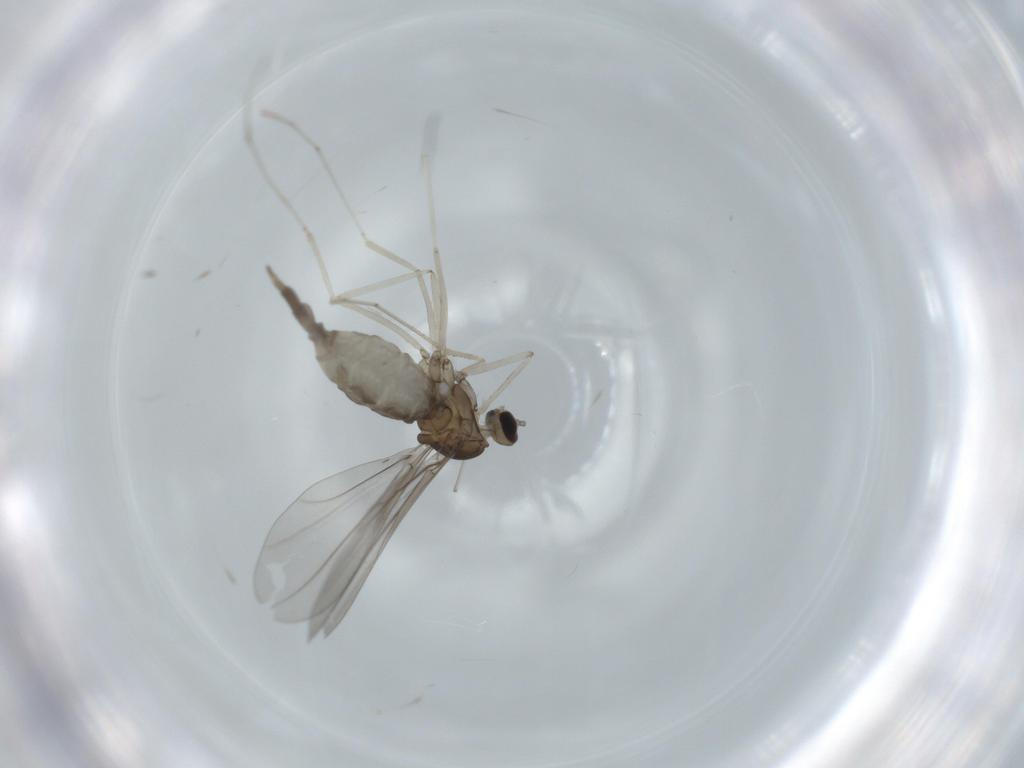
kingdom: Animalia
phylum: Arthropoda
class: Insecta
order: Diptera
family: Cecidomyiidae
